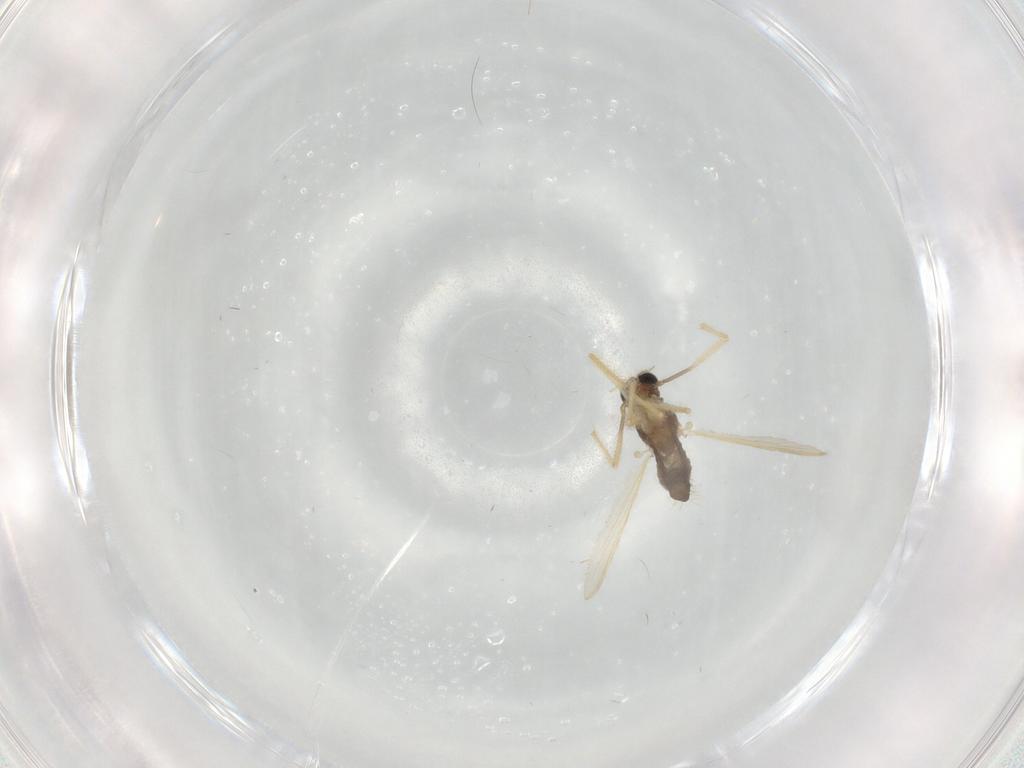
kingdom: Animalia
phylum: Arthropoda
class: Insecta
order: Diptera
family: Chironomidae
